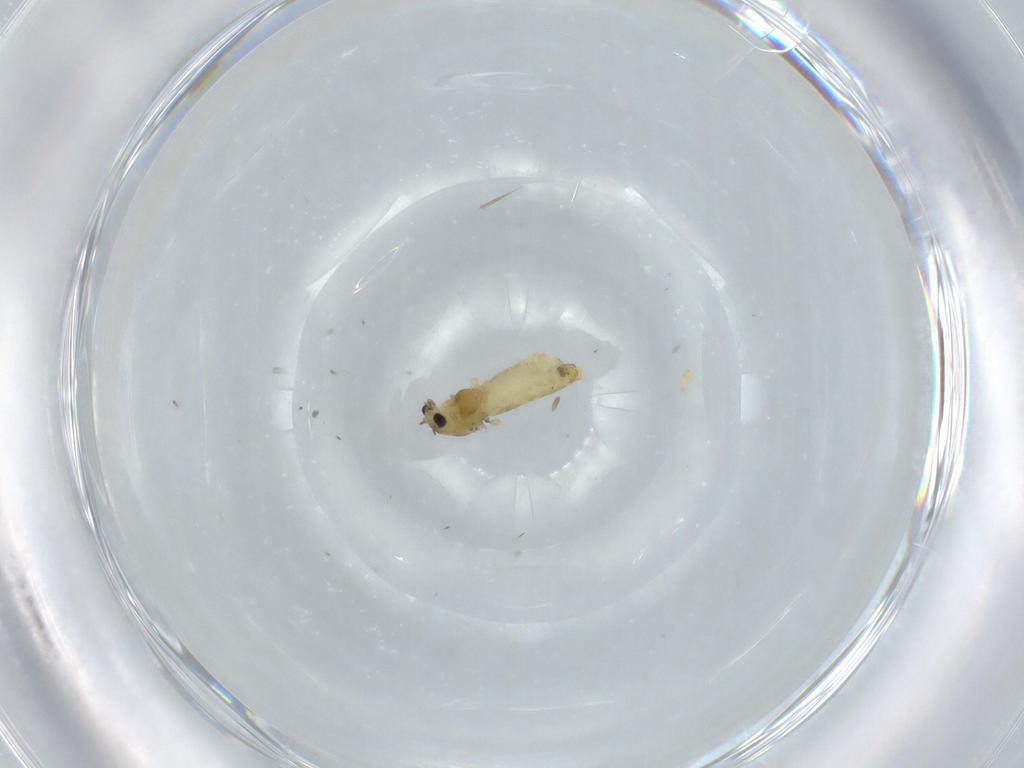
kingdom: Animalia
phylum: Arthropoda
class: Insecta
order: Diptera
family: Chironomidae
